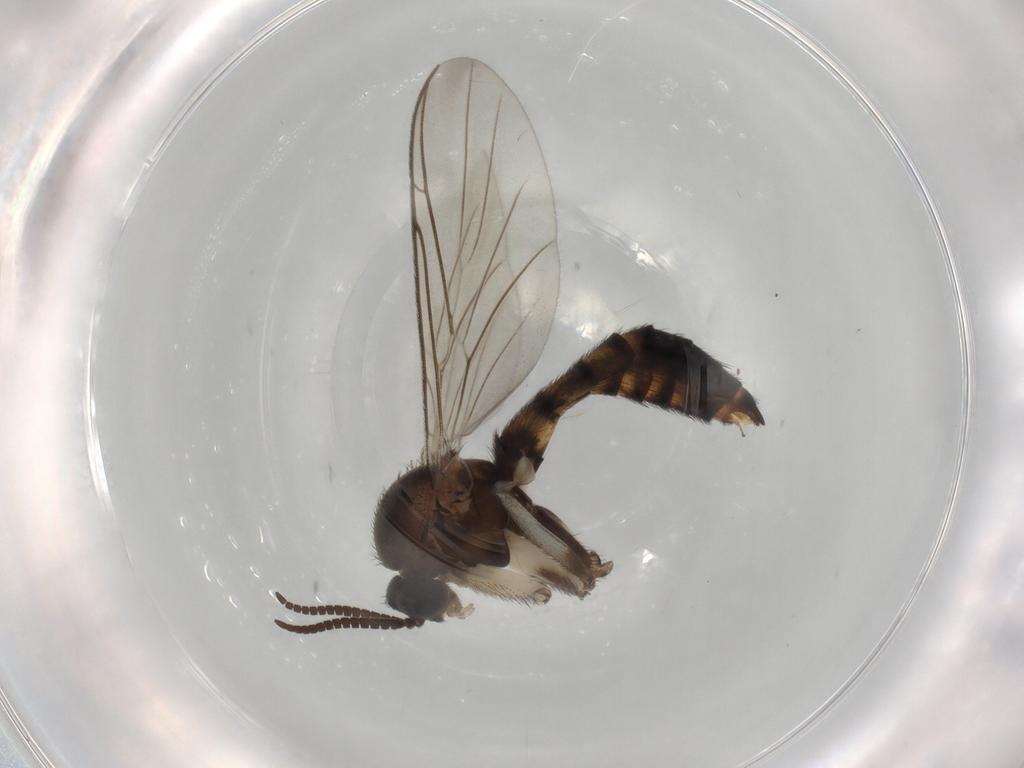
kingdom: Animalia
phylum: Arthropoda
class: Insecta
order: Diptera
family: Keroplatidae
